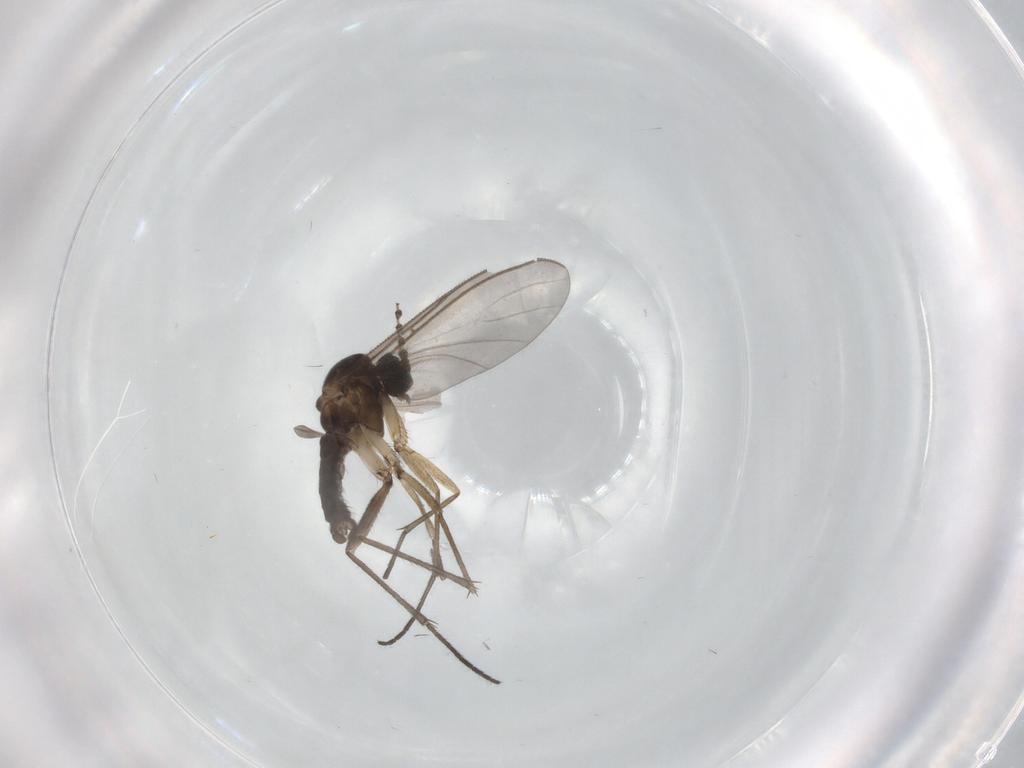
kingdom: Animalia
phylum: Arthropoda
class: Insecta
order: Diptera
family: Sciaridae
